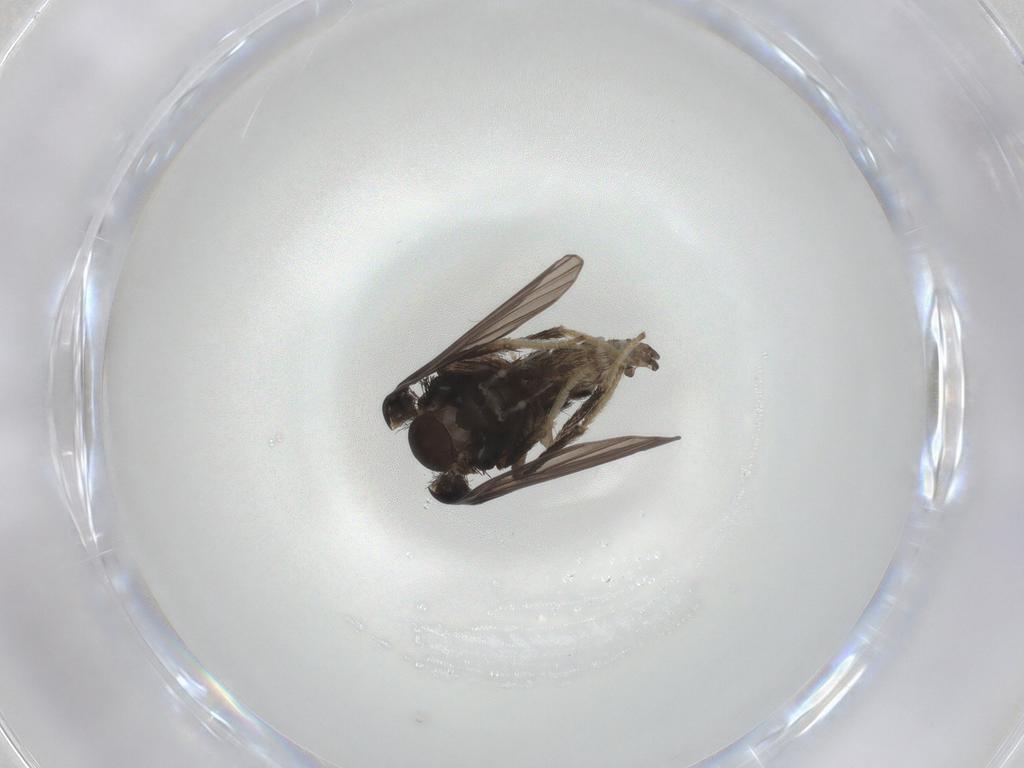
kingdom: Animalia
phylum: Arthropoda
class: Insecta
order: Diptera
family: Psychodidae
